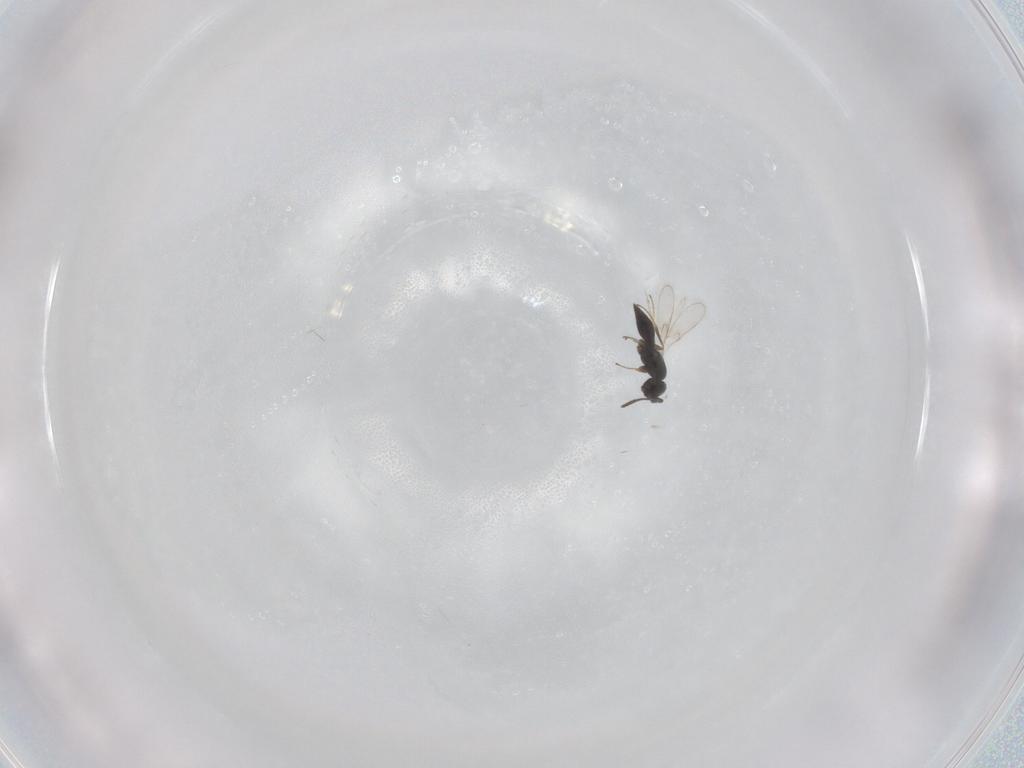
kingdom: Animalia
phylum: Arthropoda
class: Insecta
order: Hymenoptera
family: Scelionidae
